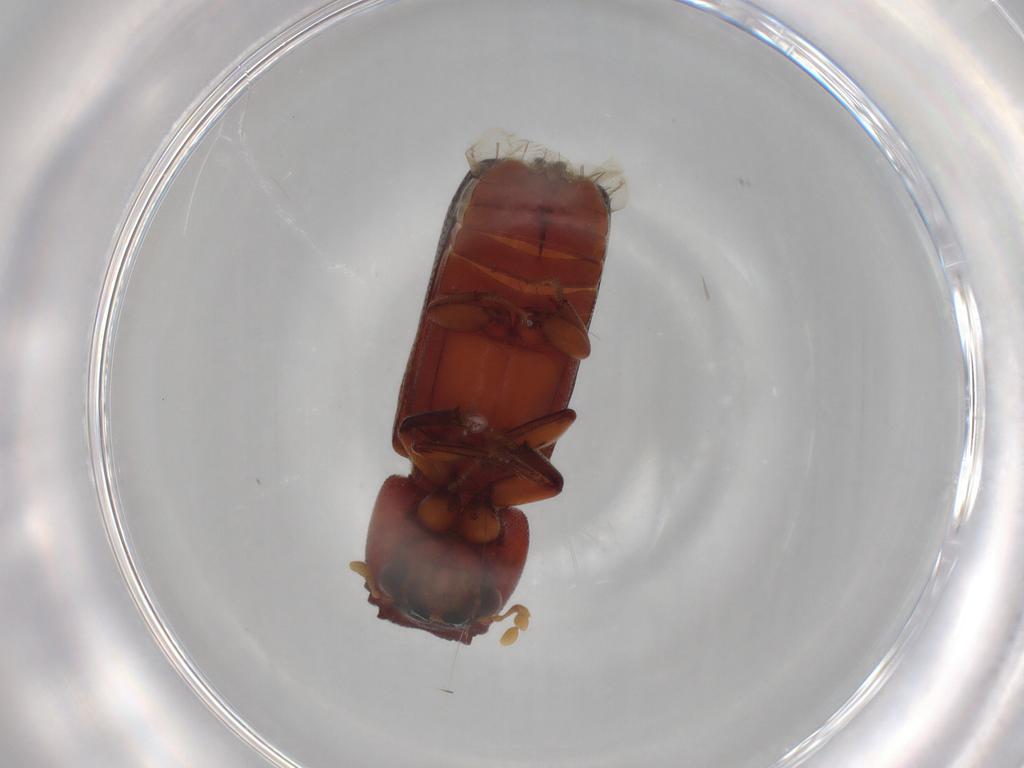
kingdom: Animalia
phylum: Arthropoda
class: Insecta
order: Coleoptera
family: Bostrichidae
